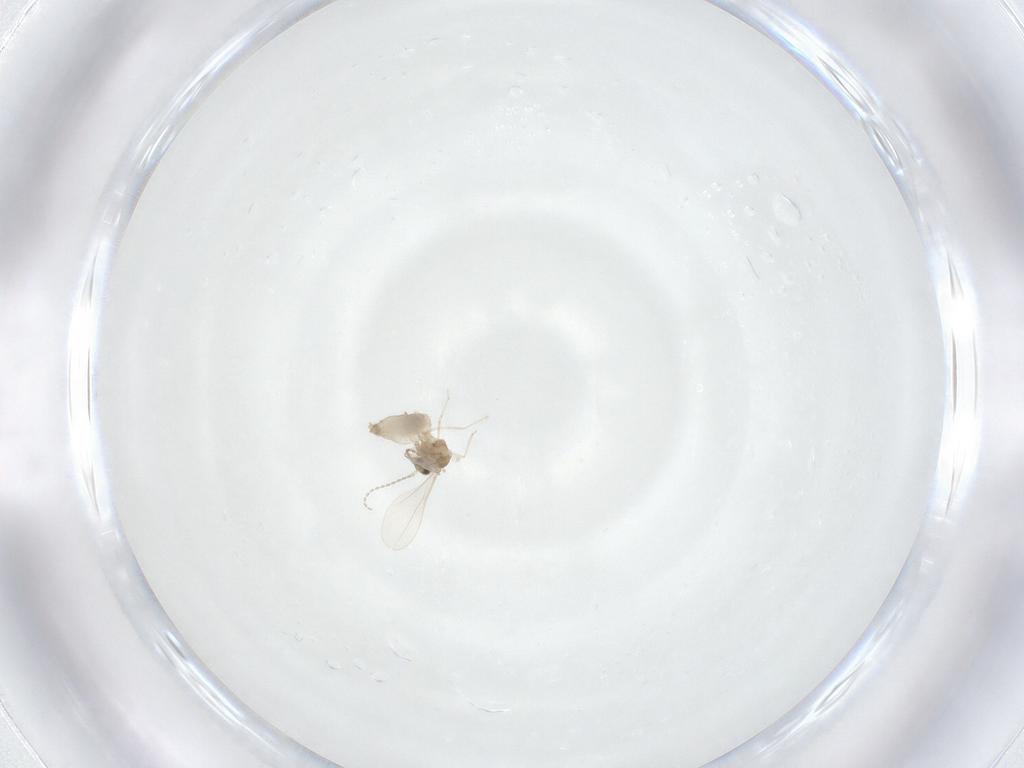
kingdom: Animalia
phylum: Arthropoda
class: Insecta
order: Diptera
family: Cecidomyiidae
